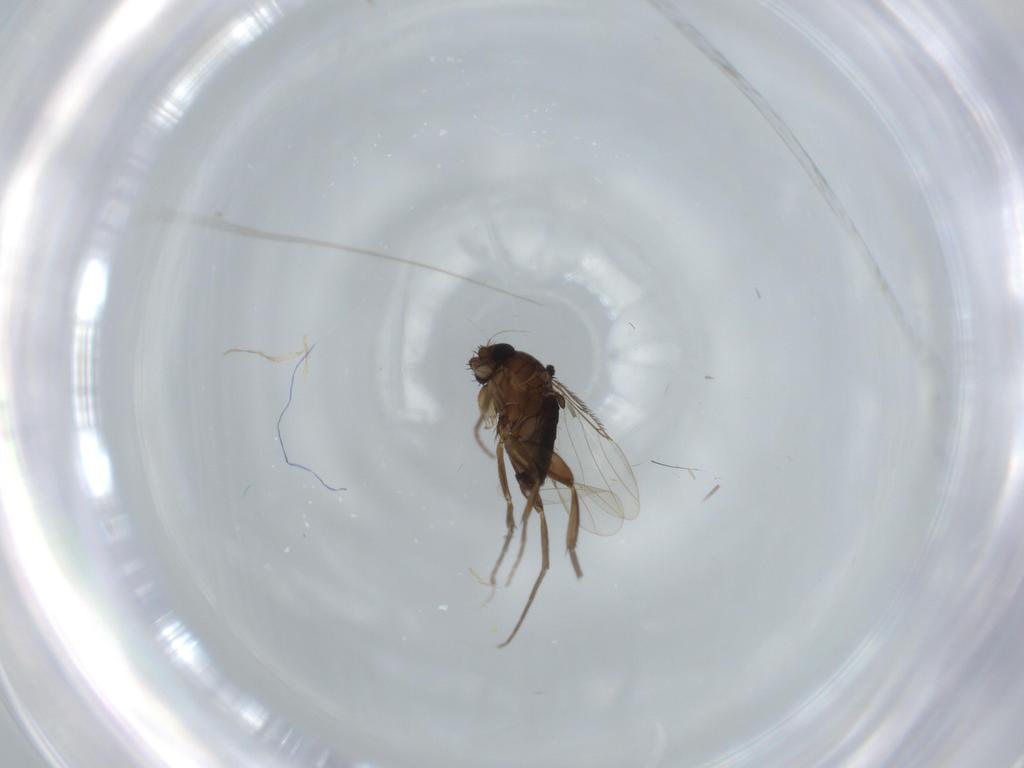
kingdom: Animalia
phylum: Arthropoda
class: Insecta
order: Diptera
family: Phoridae
